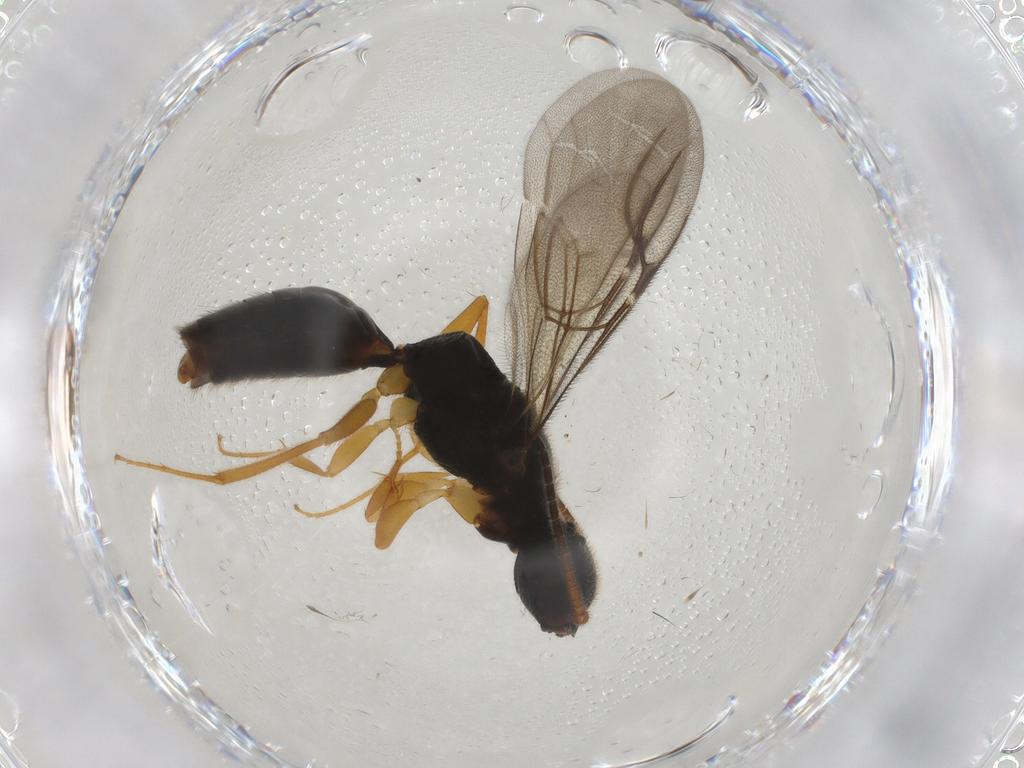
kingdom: Animalia
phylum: Arthropoda
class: Insecta
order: Hymenoptera
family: Bethylidae
